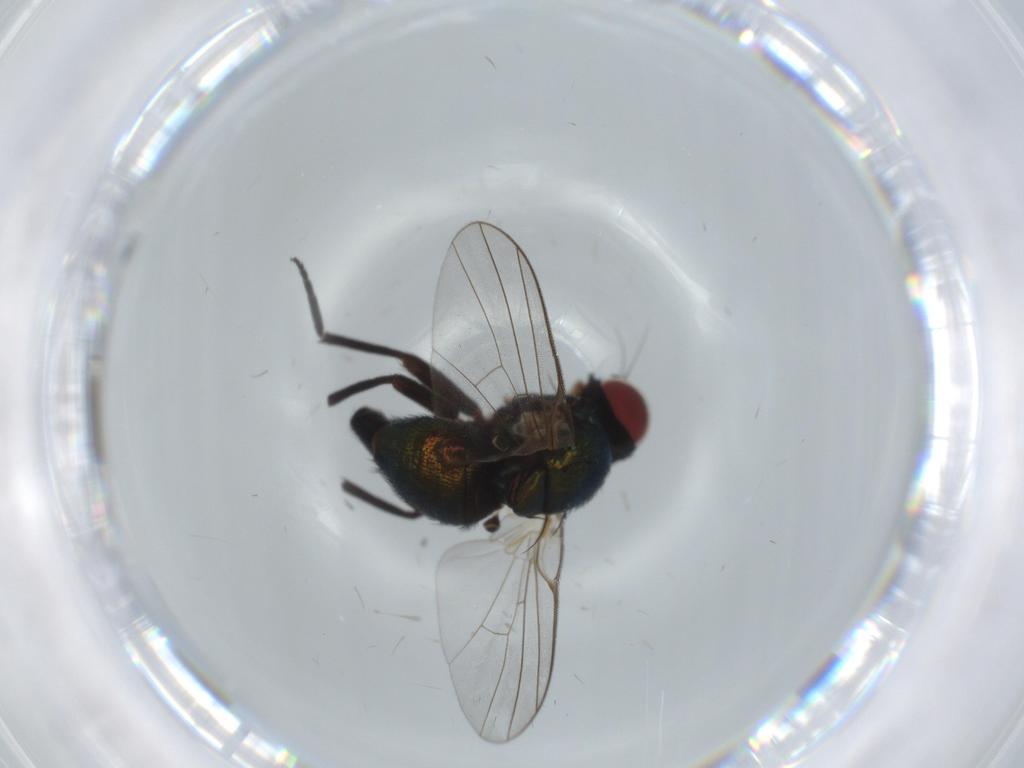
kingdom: Animalia
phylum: Arthropoda
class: Insecta
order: Diptera
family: Agromyzidae
